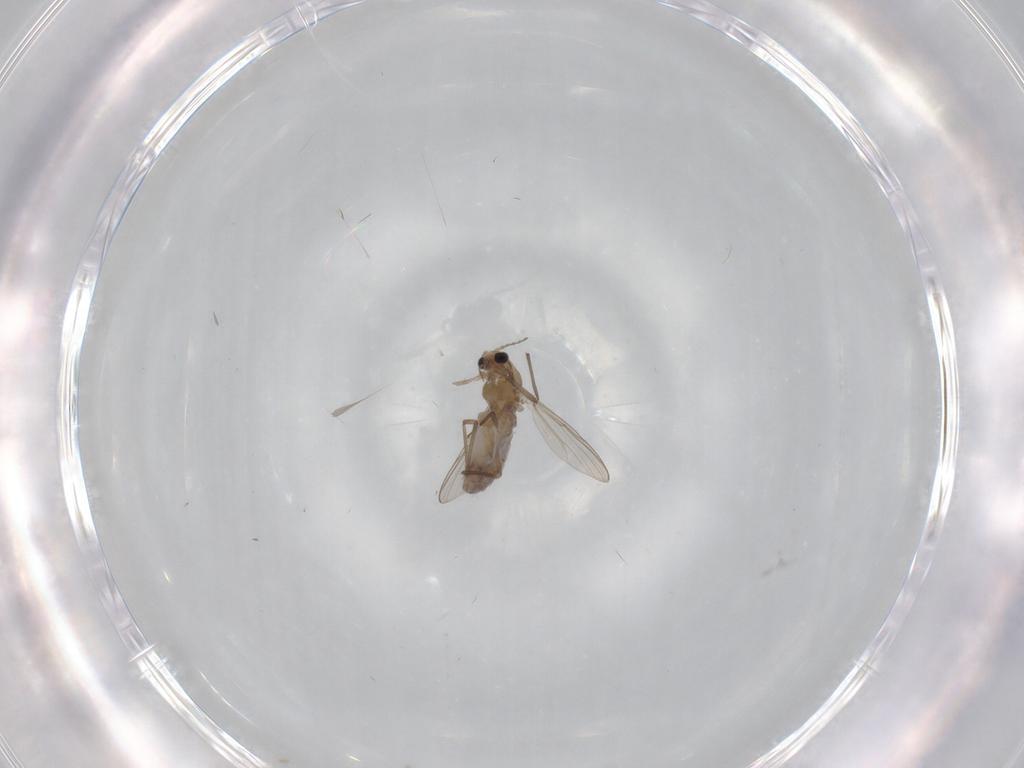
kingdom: Animalia
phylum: Arthropoda
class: Insecta
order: Diptera
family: Chironomidae
